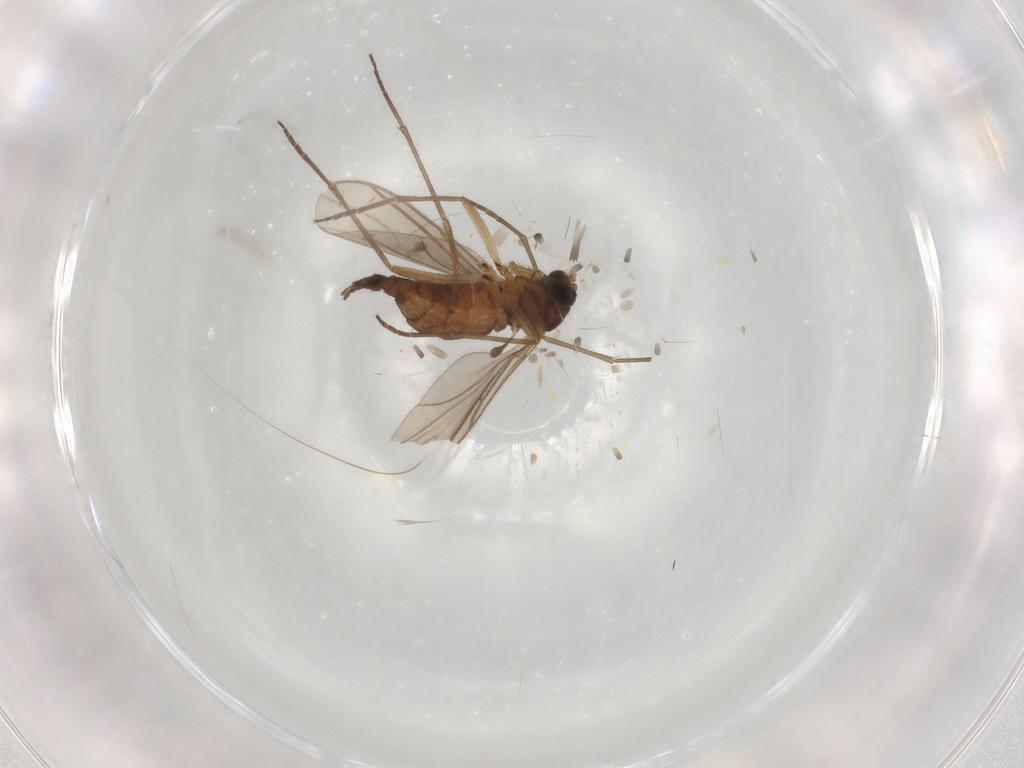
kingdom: Animalia
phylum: Arthropoda
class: Insecta
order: Diptera
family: Sciaridae
